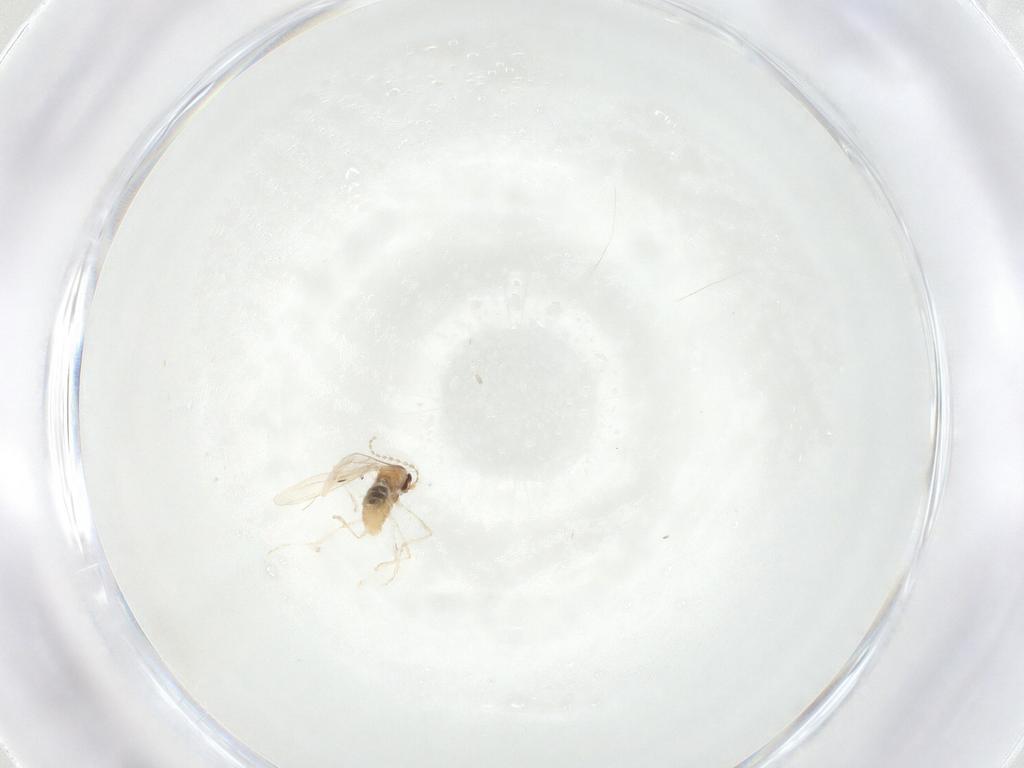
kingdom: Animalia
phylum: Arthropoda
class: Insecta
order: Diptera
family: Cecidomyiidae
